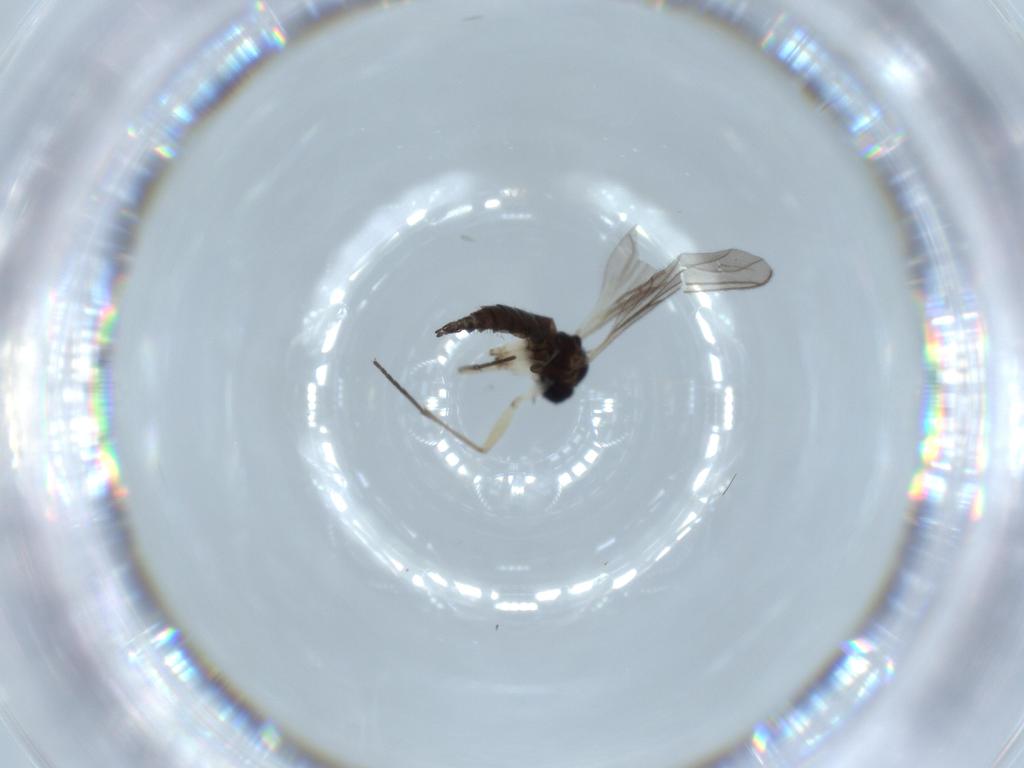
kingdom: Animalia
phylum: Arthropoda
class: Insecta
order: Diptera
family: Sciaridae
